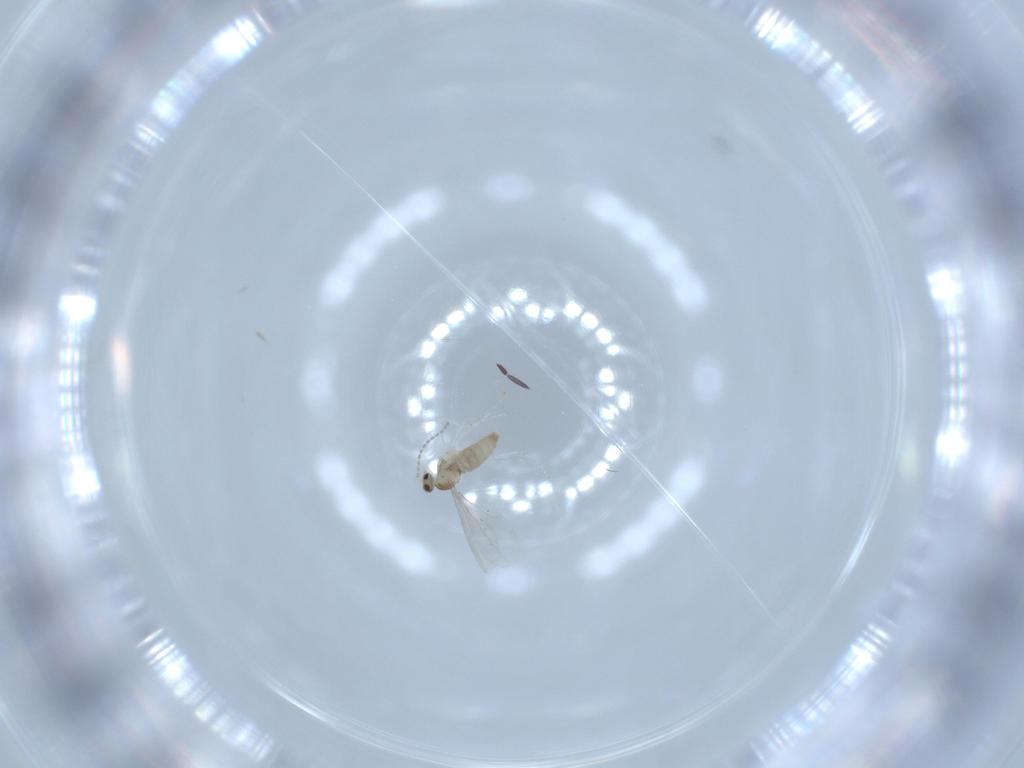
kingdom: Animalia
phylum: Arthropoda
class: Insecta
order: Diptera
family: Cecidomyiidae
